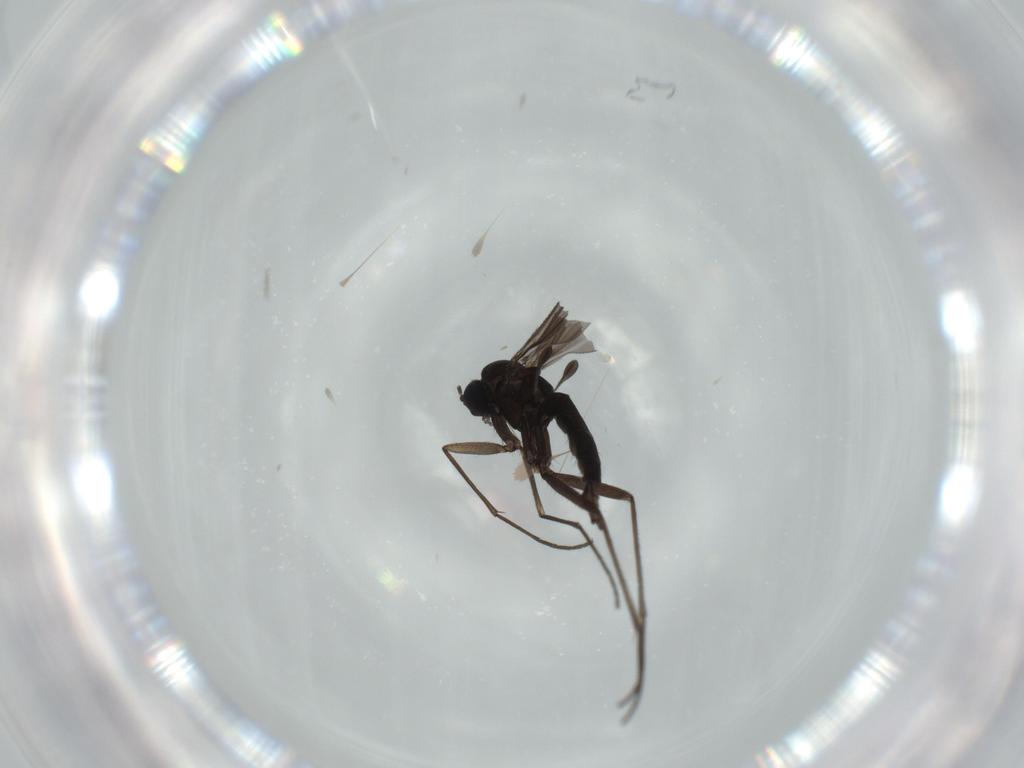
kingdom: Animalia
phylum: Arthropoda
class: Insecta
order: Diptera
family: Sciaridae
